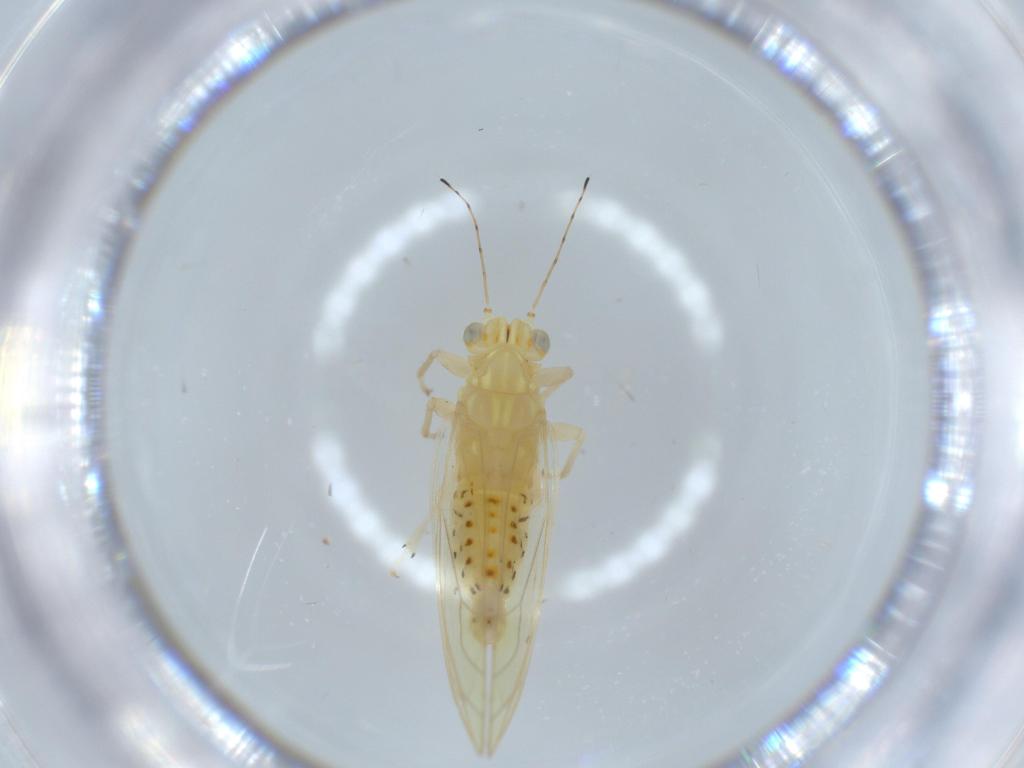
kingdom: Animalia
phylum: Arthropoda
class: Insecta
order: Hemiptera
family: Triozidae
